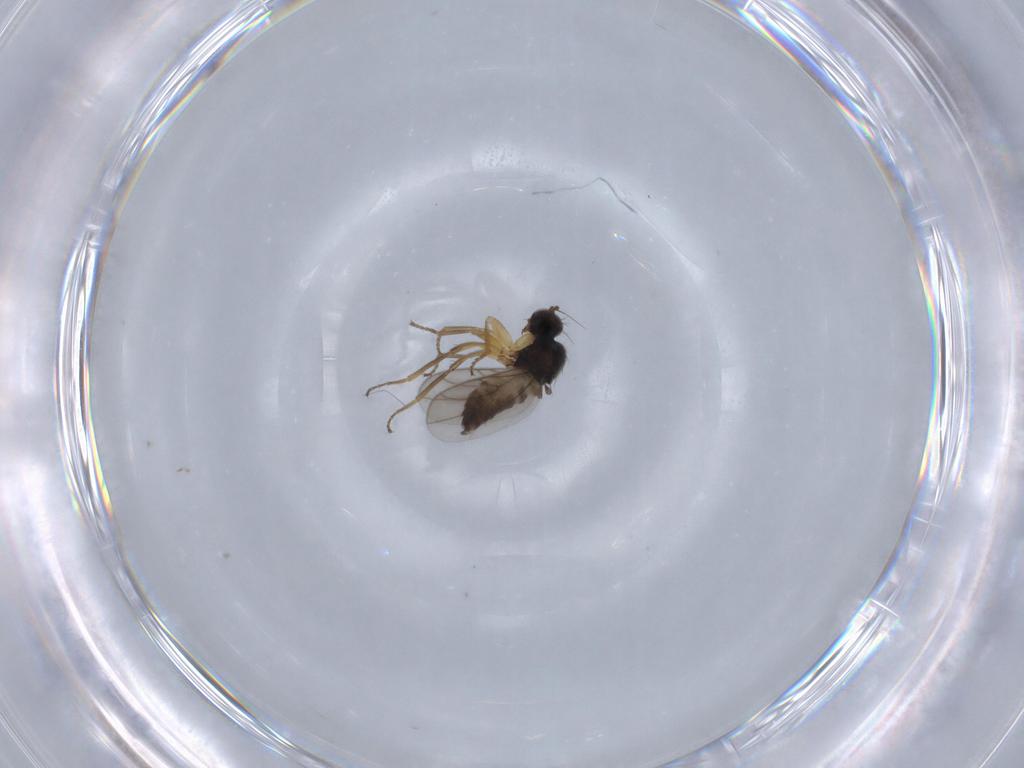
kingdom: Animalia
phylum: Arthropoda
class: Insecta
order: Diptera
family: Hybotidae
